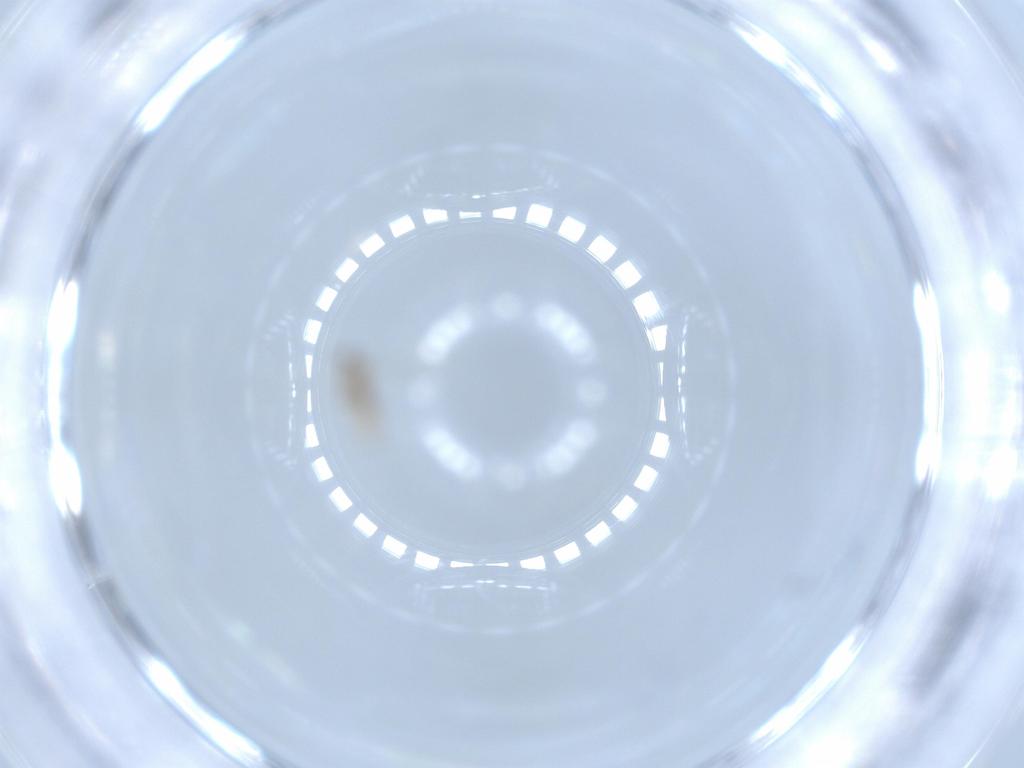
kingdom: Animalia
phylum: Arthropoda
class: Insecta
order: Diptera
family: Cecidomyiidae
